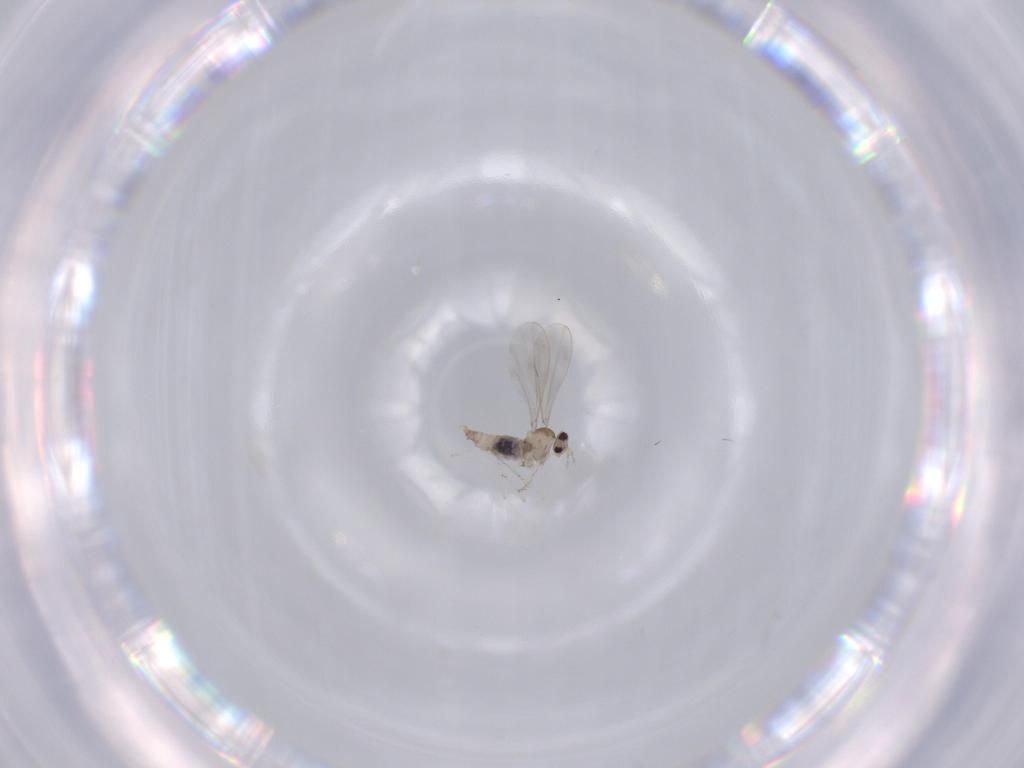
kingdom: Animalia
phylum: Arthropoda
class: Insecta
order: Diptera
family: Cecidomyiidae
